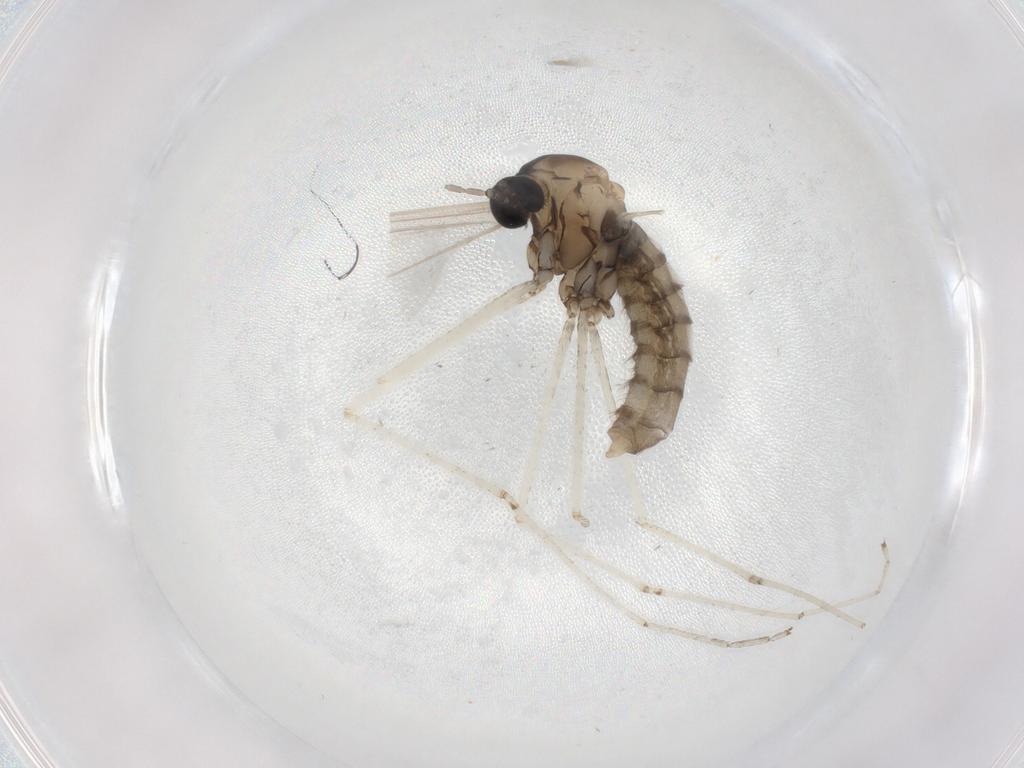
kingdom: Animalia
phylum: Arthropoda
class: Insecta
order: Diptera
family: Cecidomyiidae
